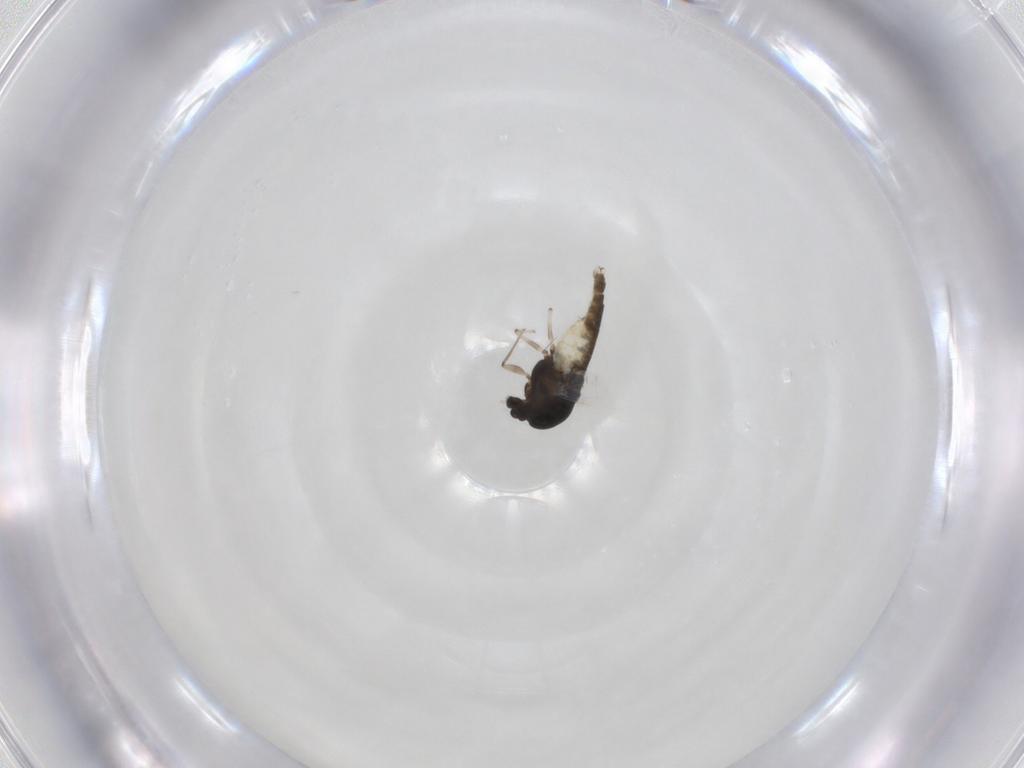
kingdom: Animalia
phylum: Arthropoda
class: Insecta
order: Diptera
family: Chironomidae
